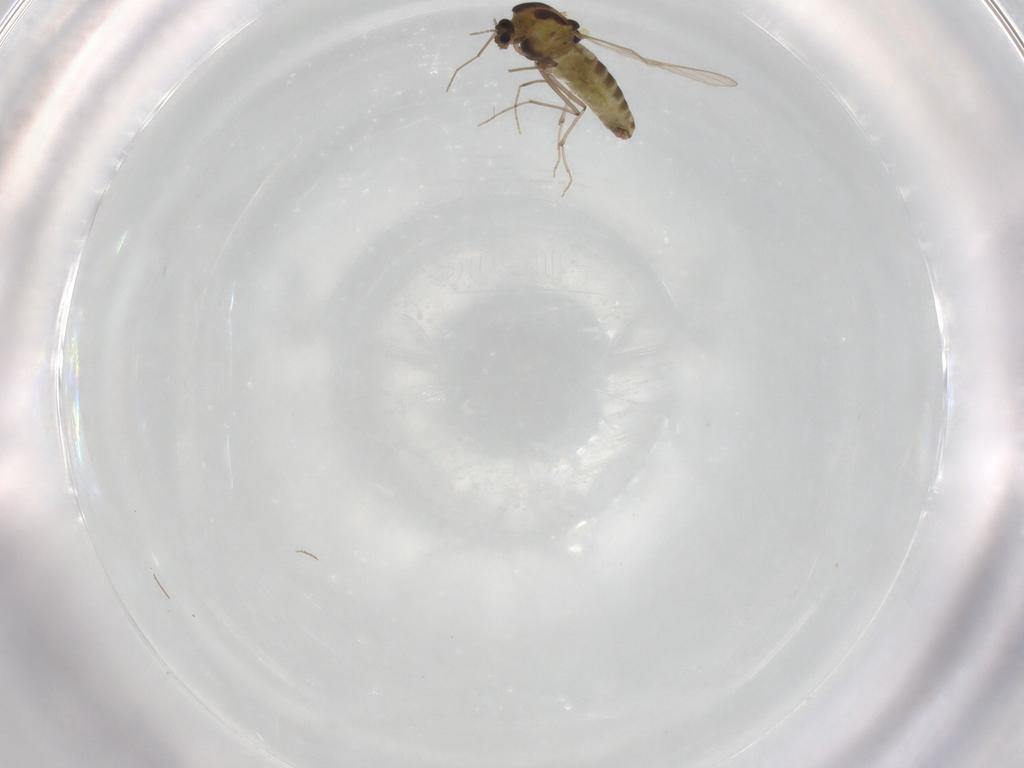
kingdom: Animalia
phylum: Arthropoda
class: Insecta
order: Diptera
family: Chironomidae
